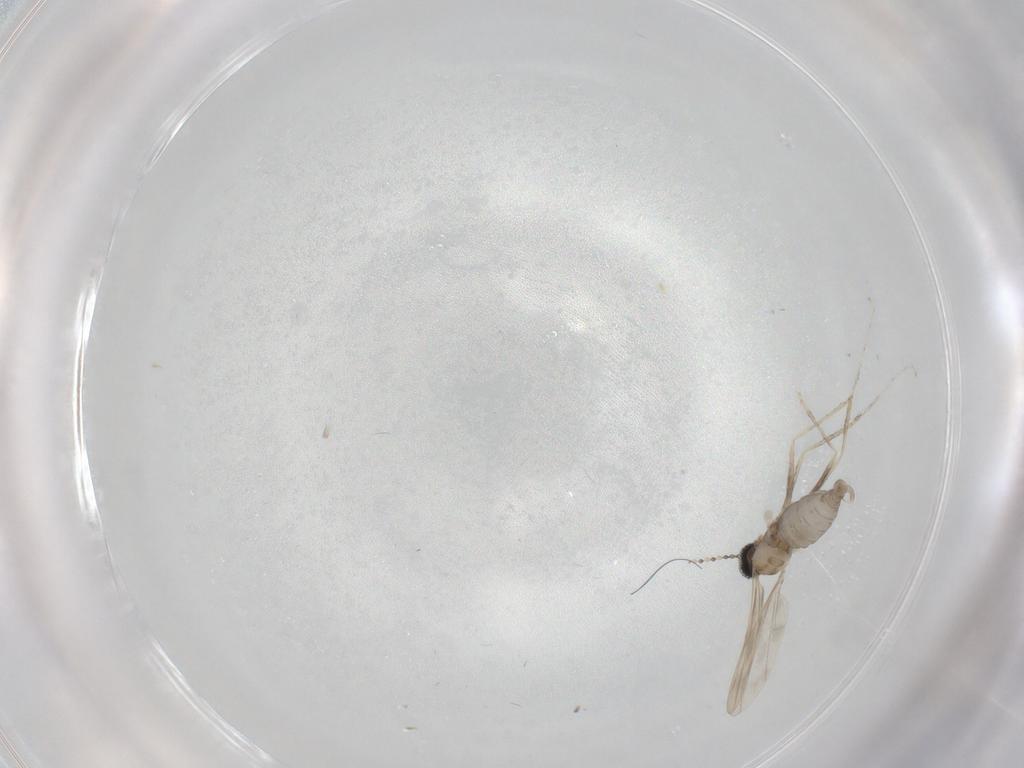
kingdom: Animalia
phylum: Arthropoda
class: Insecta
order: Diptera
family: Cecidomyiidae
